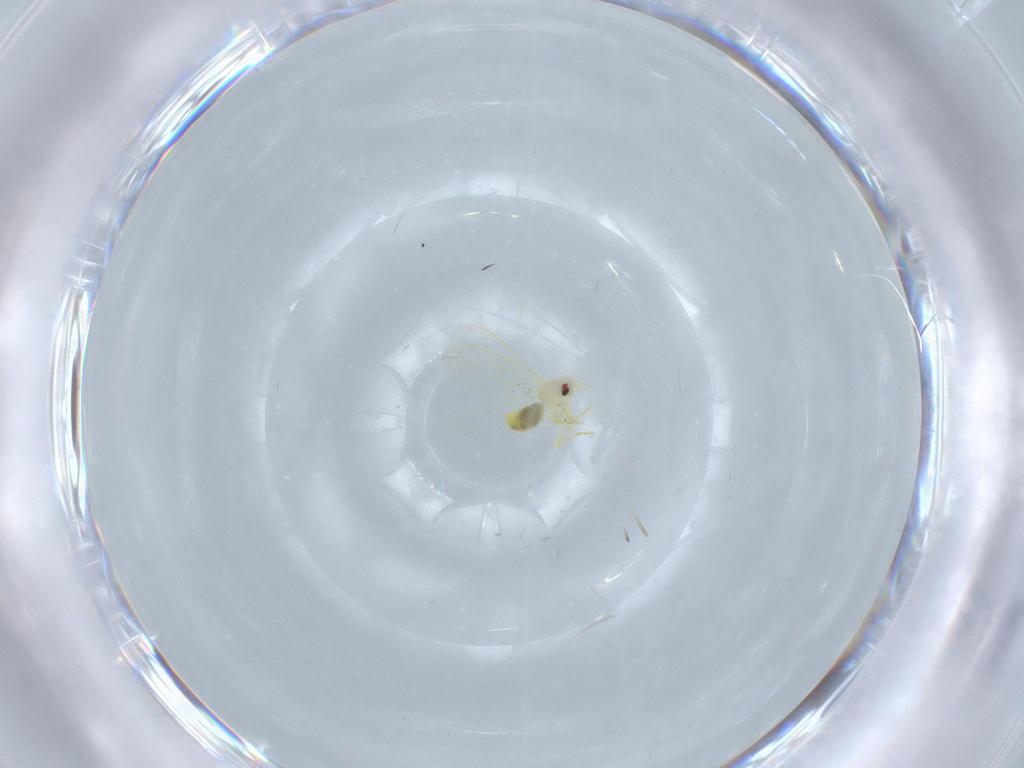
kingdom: Animalia
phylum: Arthropoda
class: Insecta
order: Hemiptera
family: Aleyrodidae
